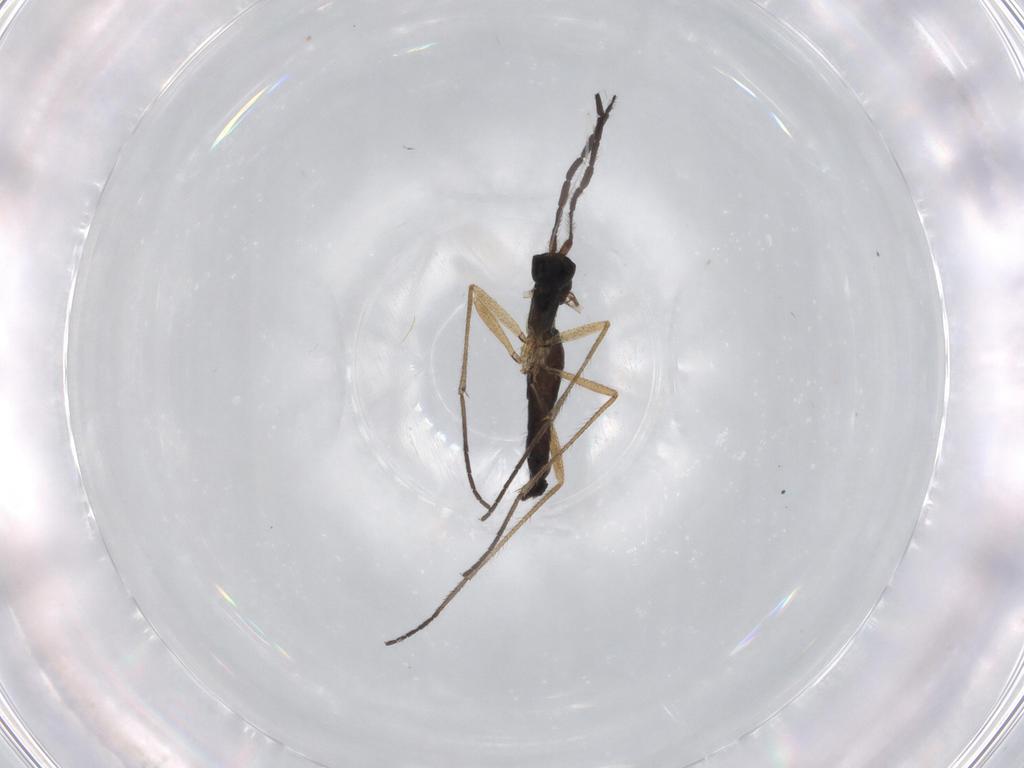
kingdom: Animalia
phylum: Arthropoda
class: Insecta
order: Diptera
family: Sciaridae
